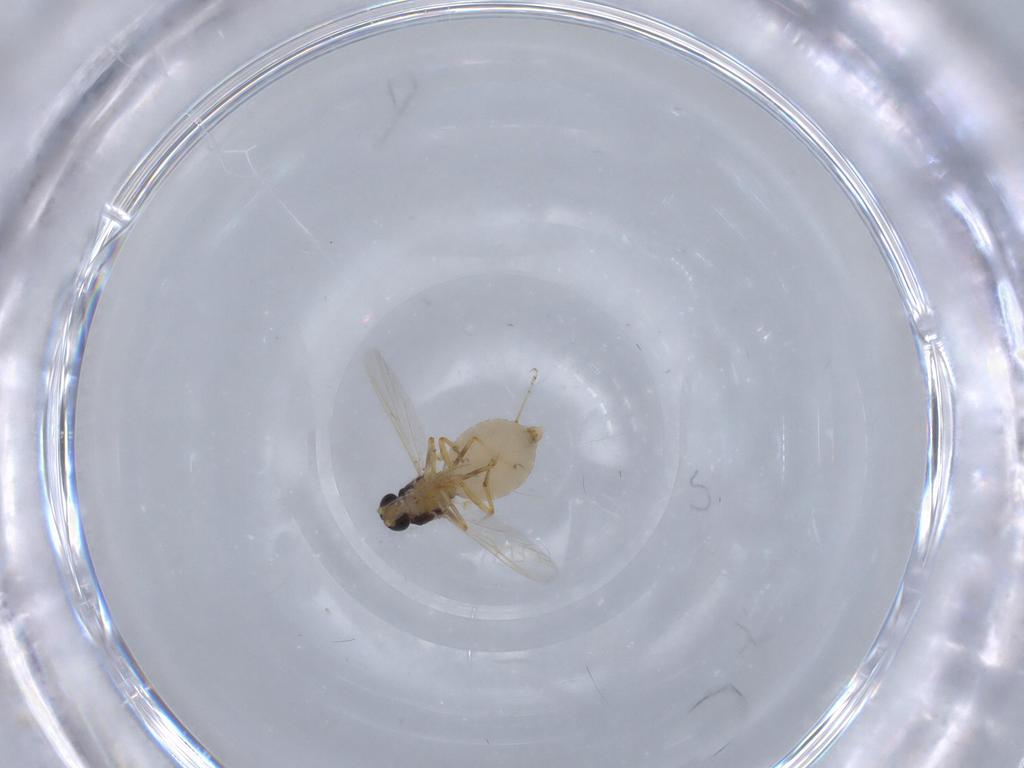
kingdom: Animalia
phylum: Arthropoda
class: Insecta
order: Diptera
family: Ceratopogonidae
